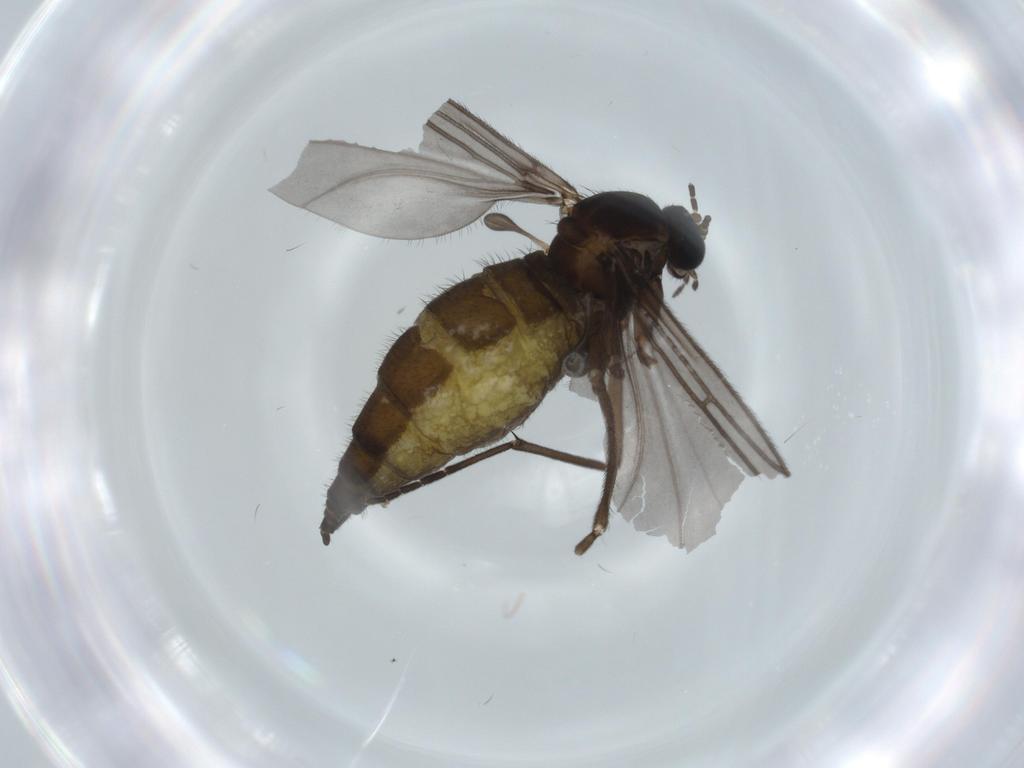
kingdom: Animalia
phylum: Arthropoda
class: Insecta
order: Diptera
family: Sciaridae
